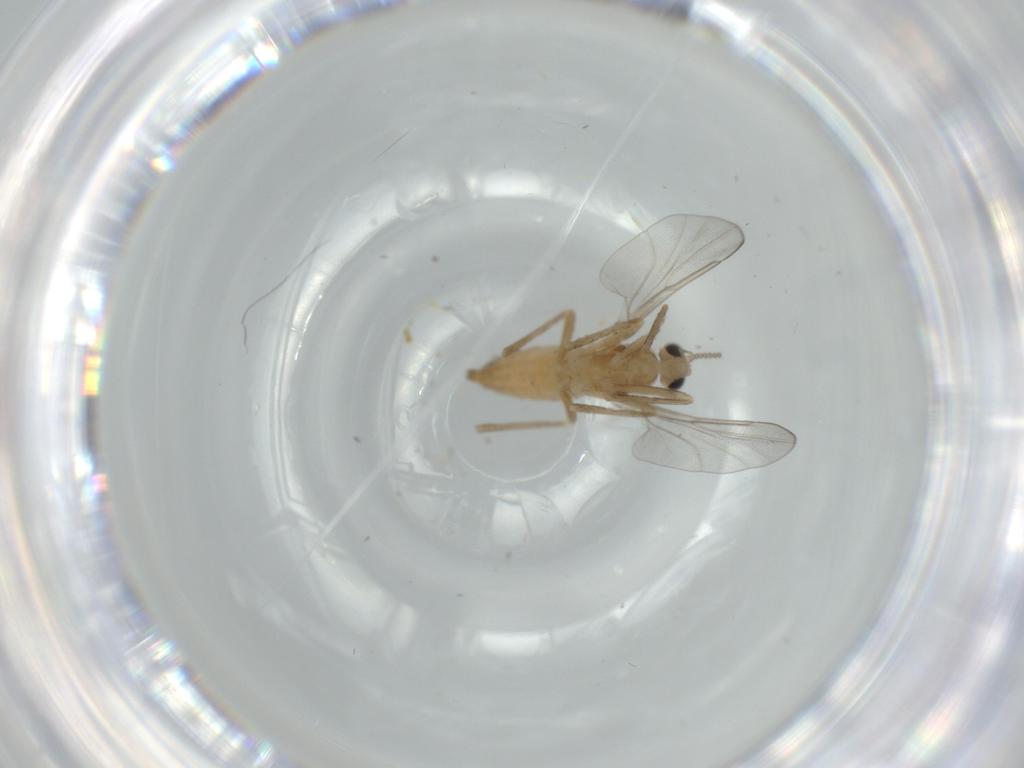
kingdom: Animalia
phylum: Arthropoda
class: Insecta
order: Diptera
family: Cecidomyiidae
